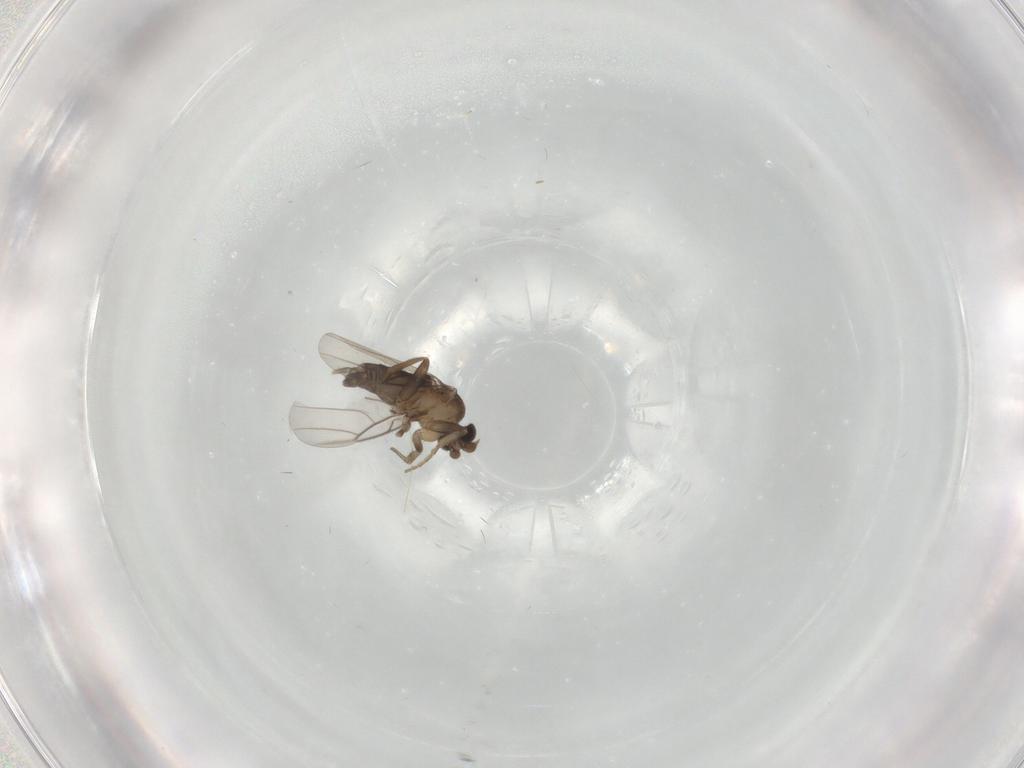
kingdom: Animalia
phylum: Arthropoda
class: Insecta
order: Diptera
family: Phoridae
